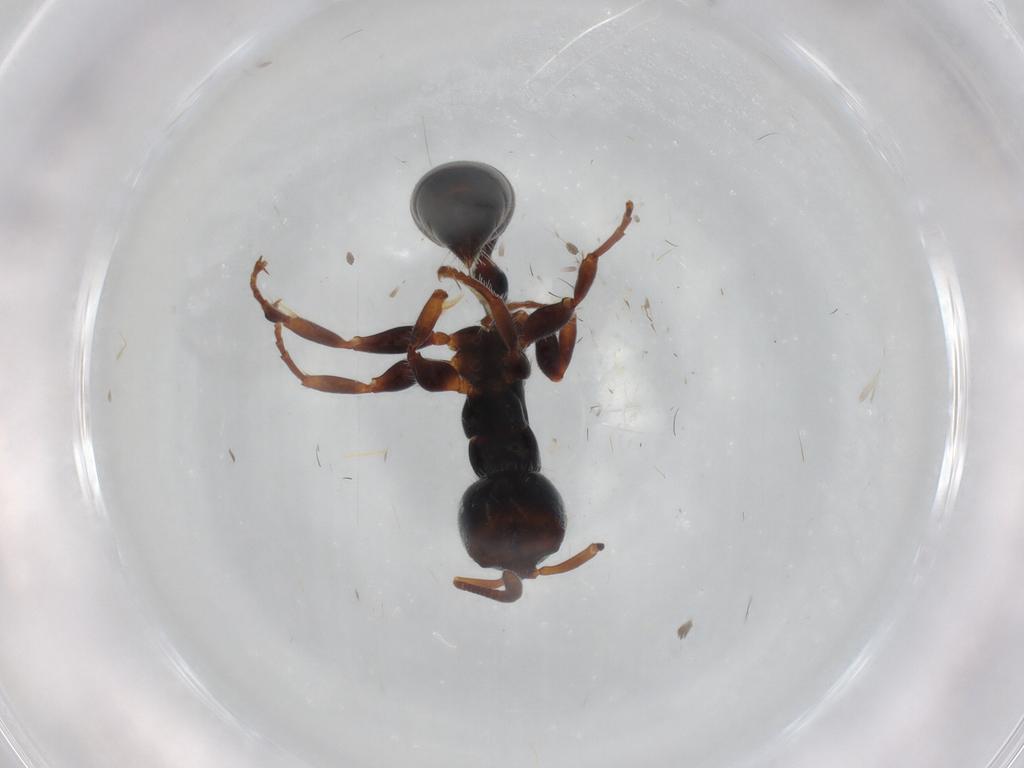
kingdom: Animalia
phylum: Arthropoda
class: Insecta
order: Hymenoptera
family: Formicidae
